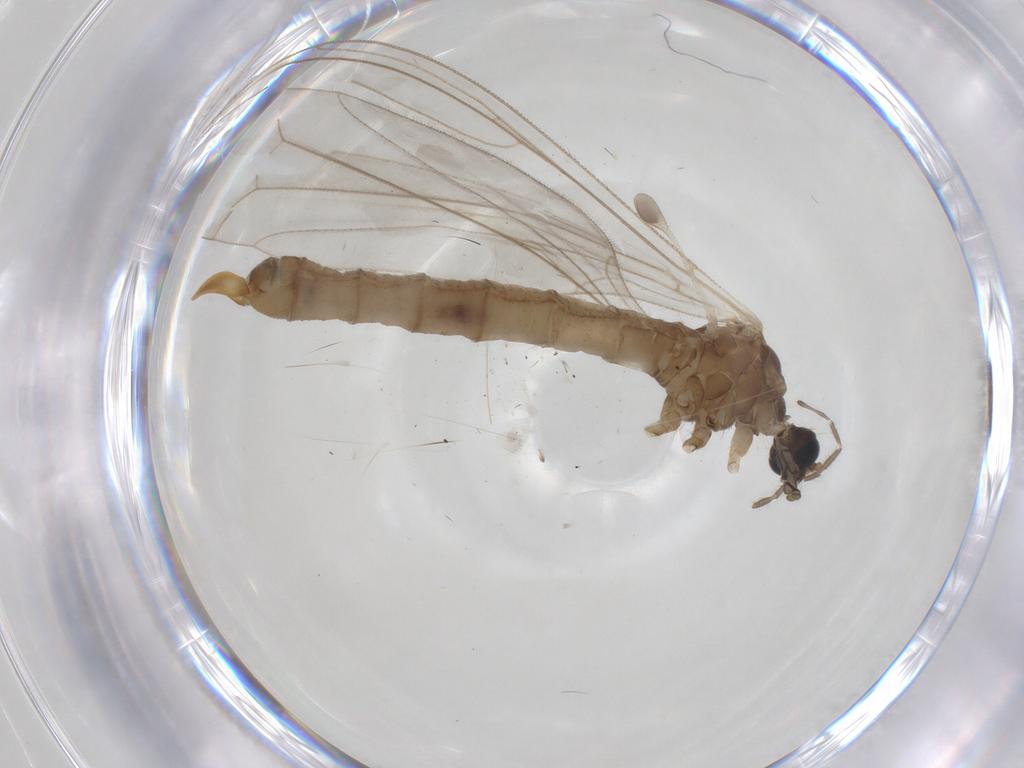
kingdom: Animalia
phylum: Arthropoda
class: Insecta
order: Diptera
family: Trichoceridae
